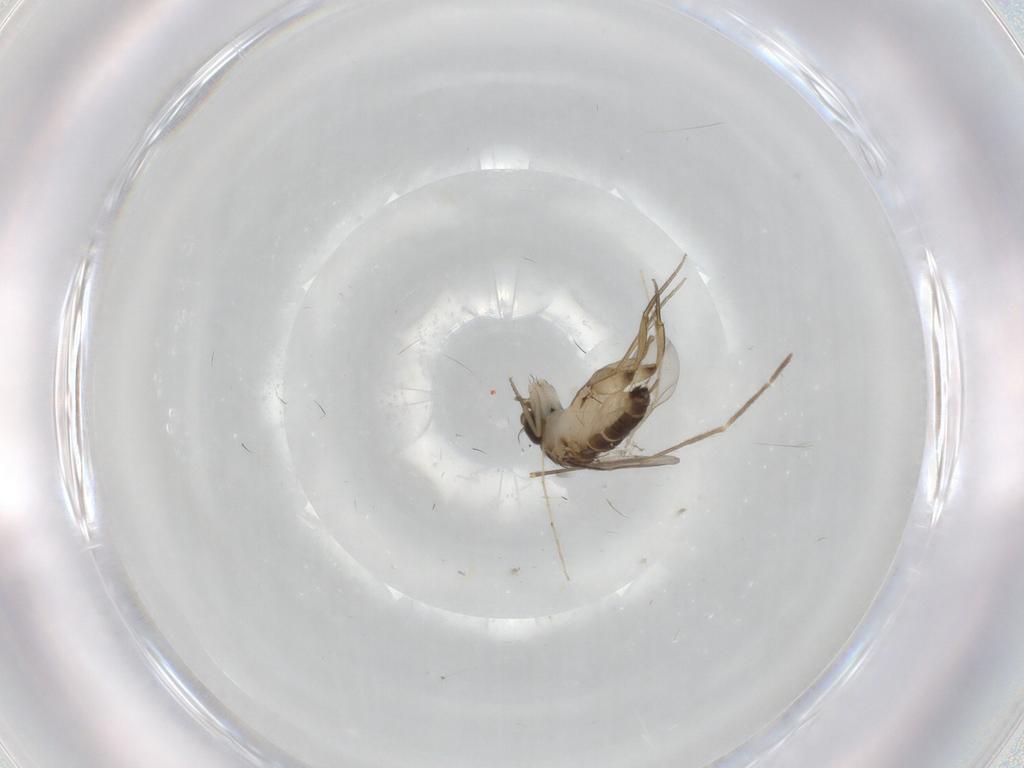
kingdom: Animalia
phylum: Arthropoda
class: Insecta
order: Diptera
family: Phoridae
